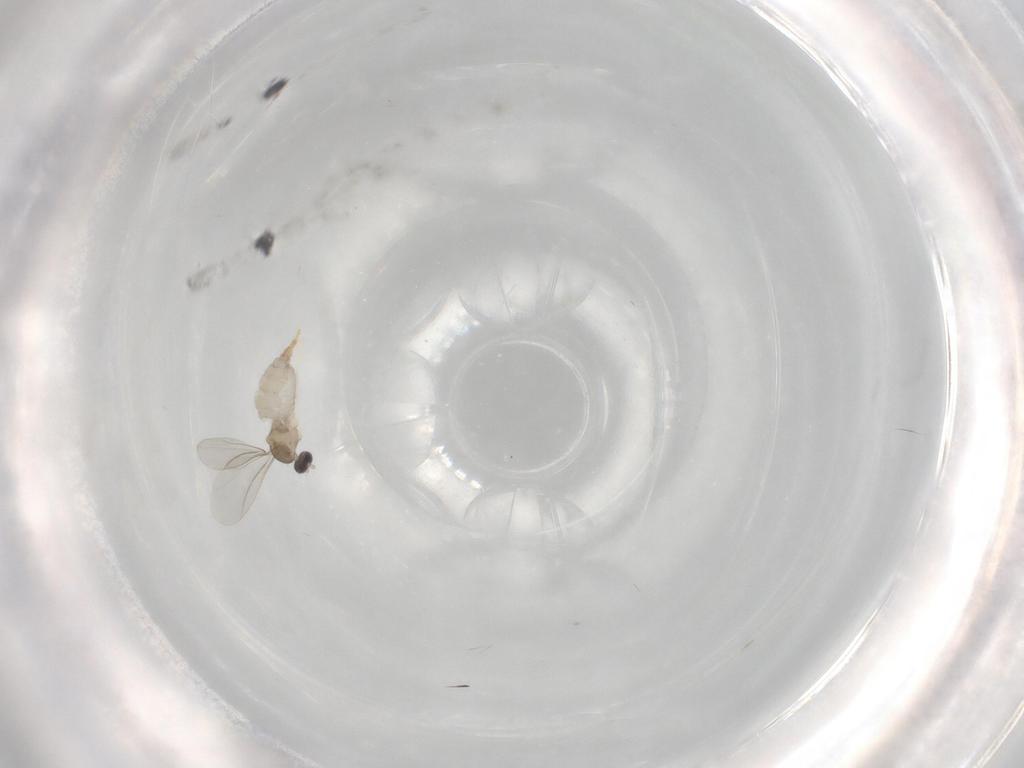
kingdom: Animalia
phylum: Arthropoda
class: Insecta
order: Diptera
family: Cecidomyiidae
